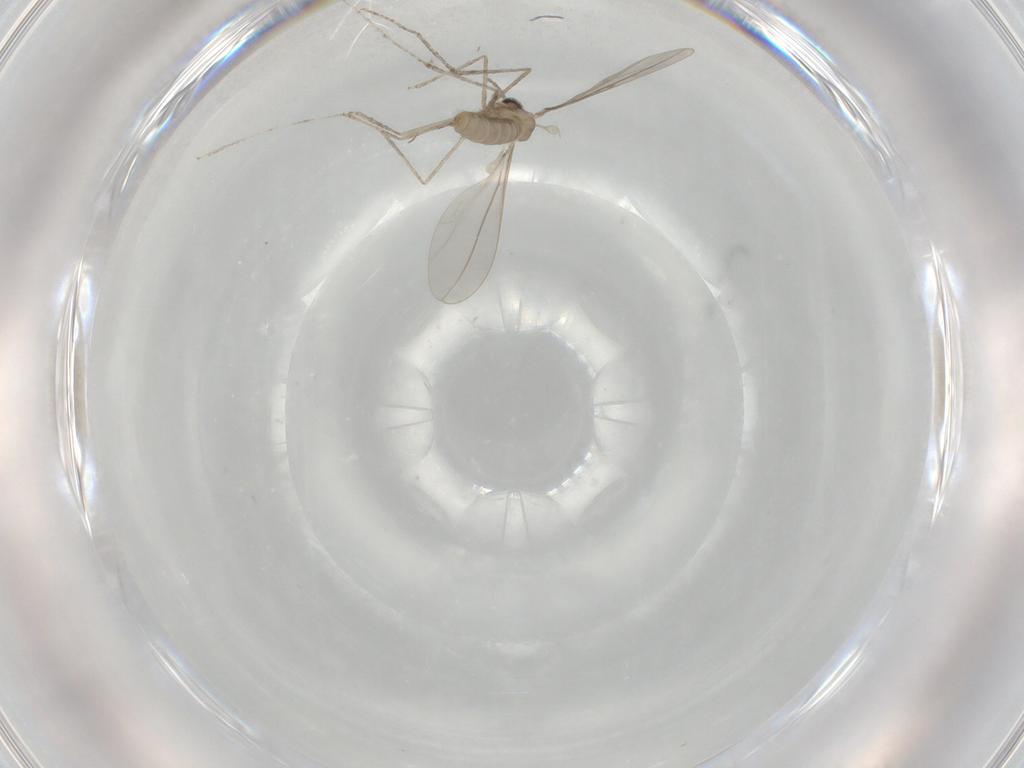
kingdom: Animalia
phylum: Arthropoda
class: Insecta
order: Diptera
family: Cecidomyiidae
